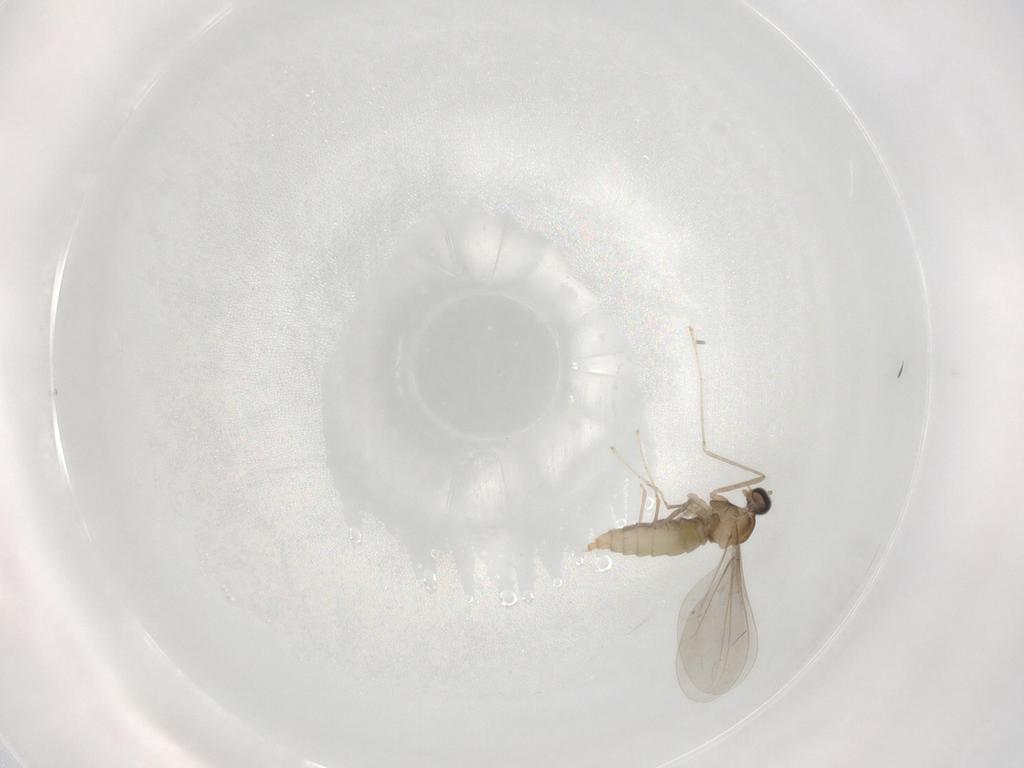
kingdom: Animalia
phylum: Arthropoda
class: Insecta
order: Diptera
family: Cecidomyiidae
